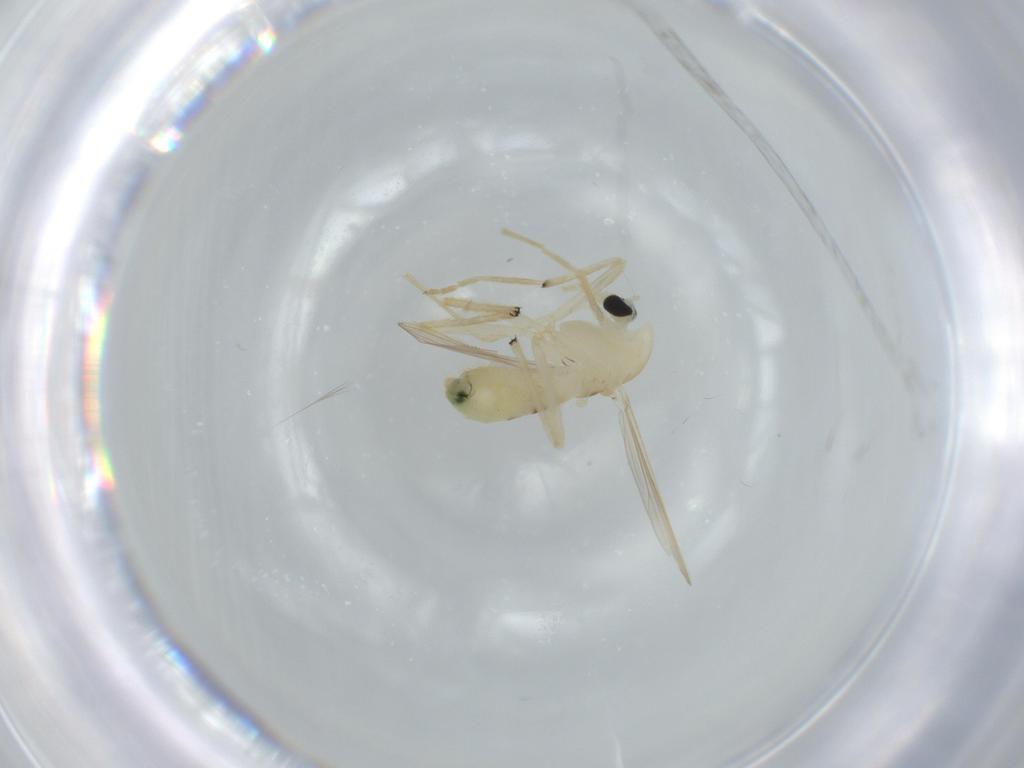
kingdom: Animalia
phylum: Arthropoda
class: Insecta
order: Diptera
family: Chironomidae
